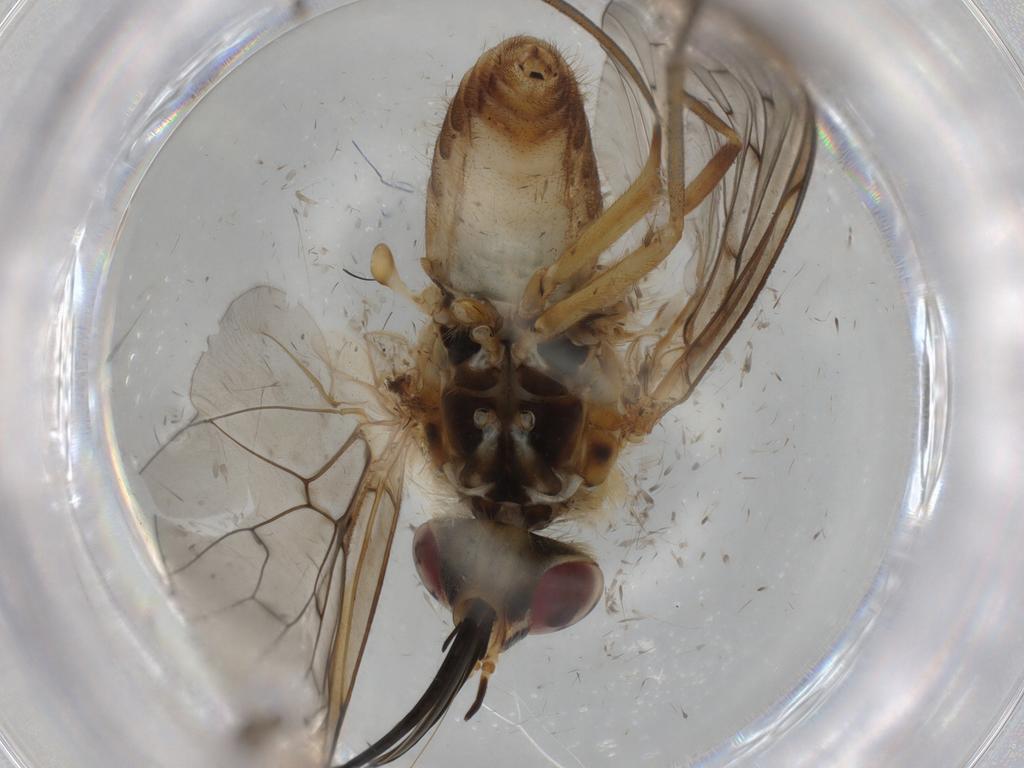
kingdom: Animalia
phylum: Arthropoda
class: Insecta
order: Diptera
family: Bombyliidae
